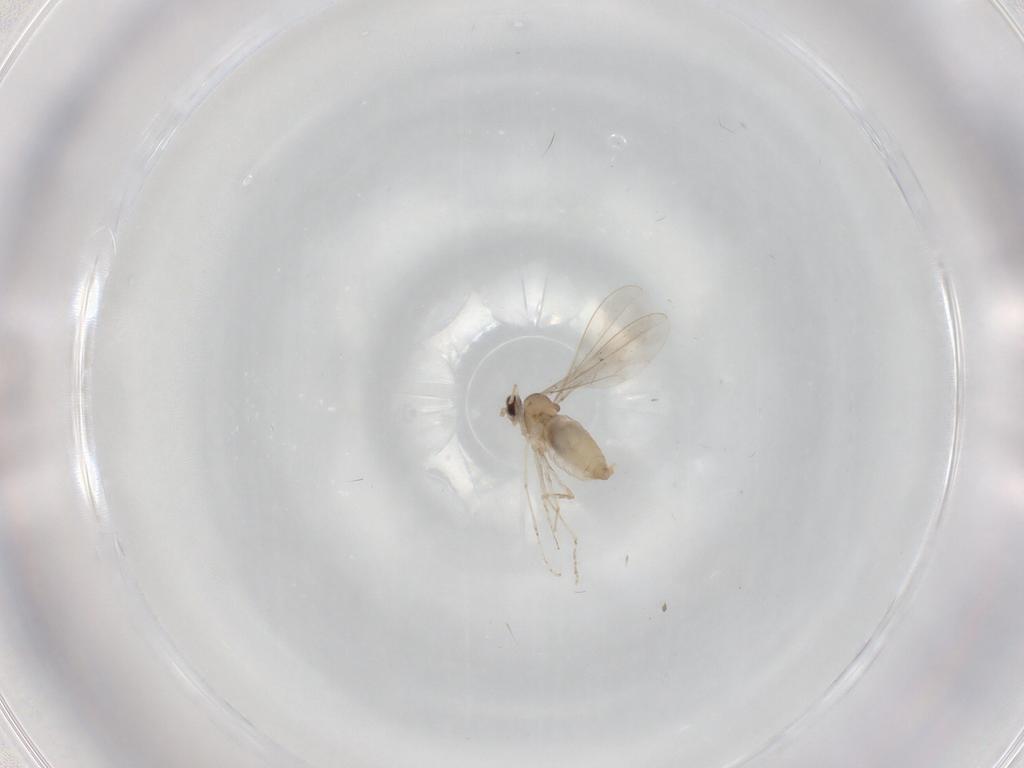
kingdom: Animalia
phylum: Arthropoda
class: Insecta
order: Diptera
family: Cecidomyiidae
